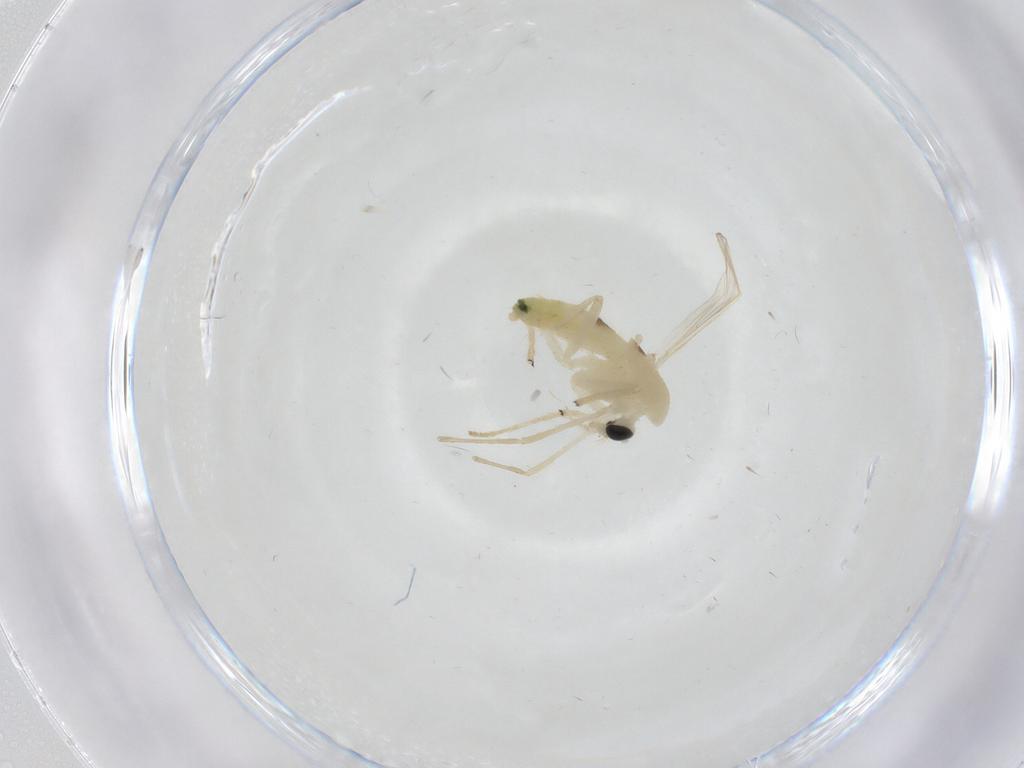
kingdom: Animalia
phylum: Arthropoda
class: Insecta
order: Diptera
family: Chironomidae
